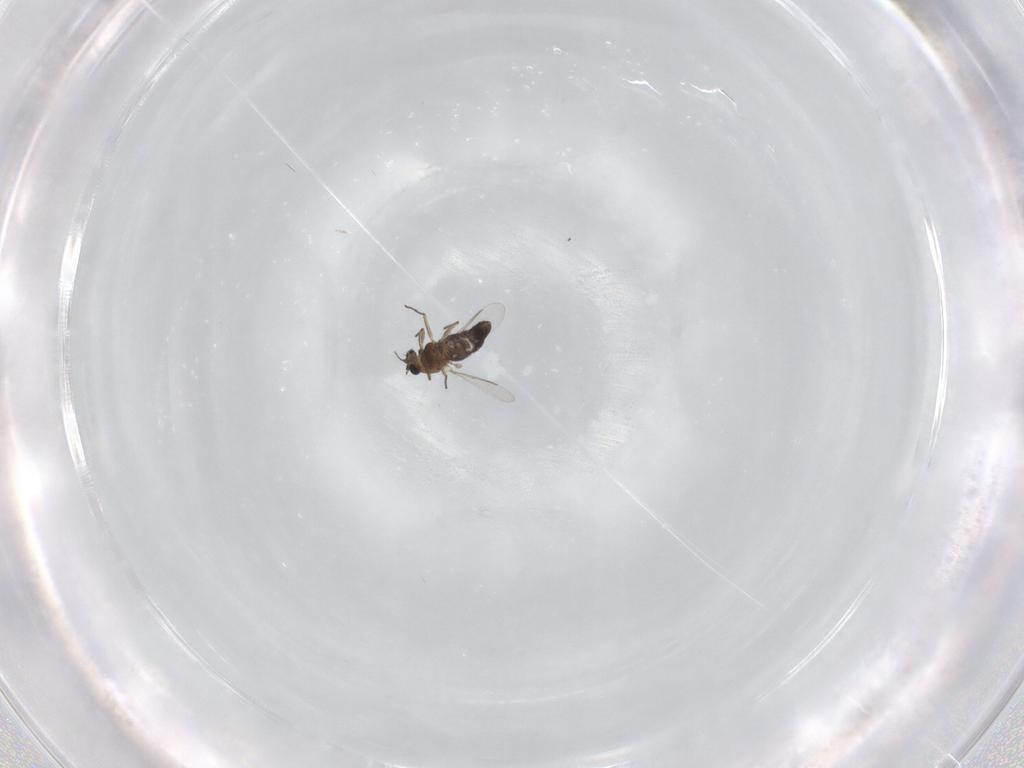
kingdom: Animalia
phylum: Arthropoda
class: Insecta
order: Diptera
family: Chironomidae
